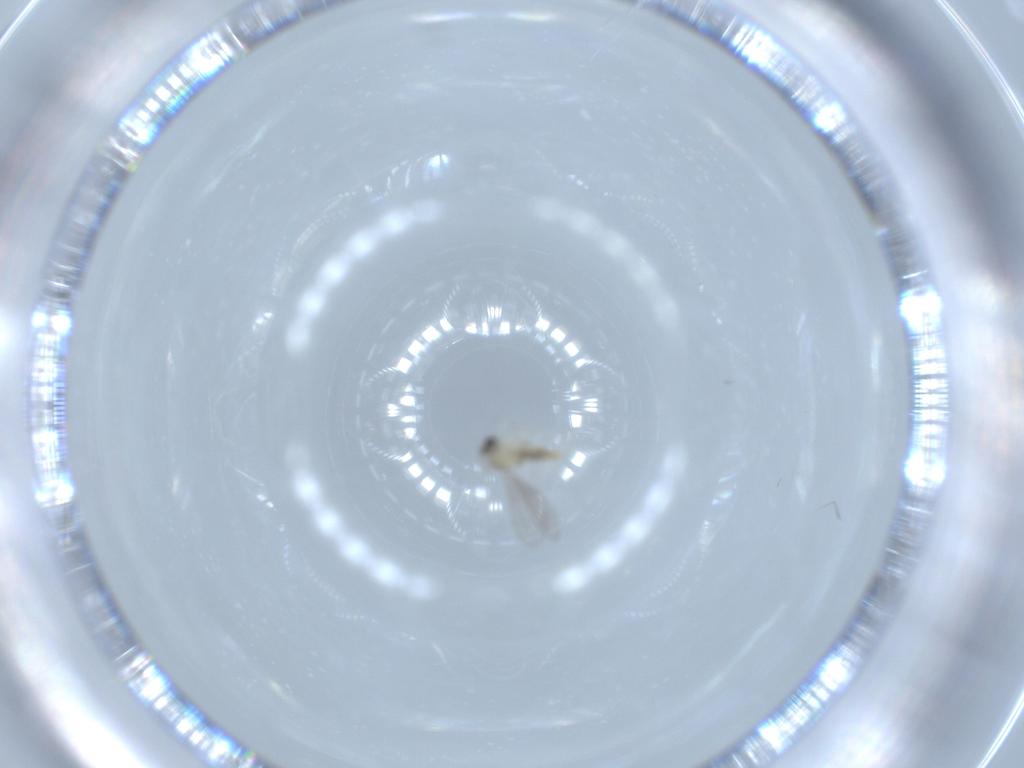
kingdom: Animalia
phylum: Arthropoda
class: Insecta
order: Diptera
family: Cecidomyiidae
